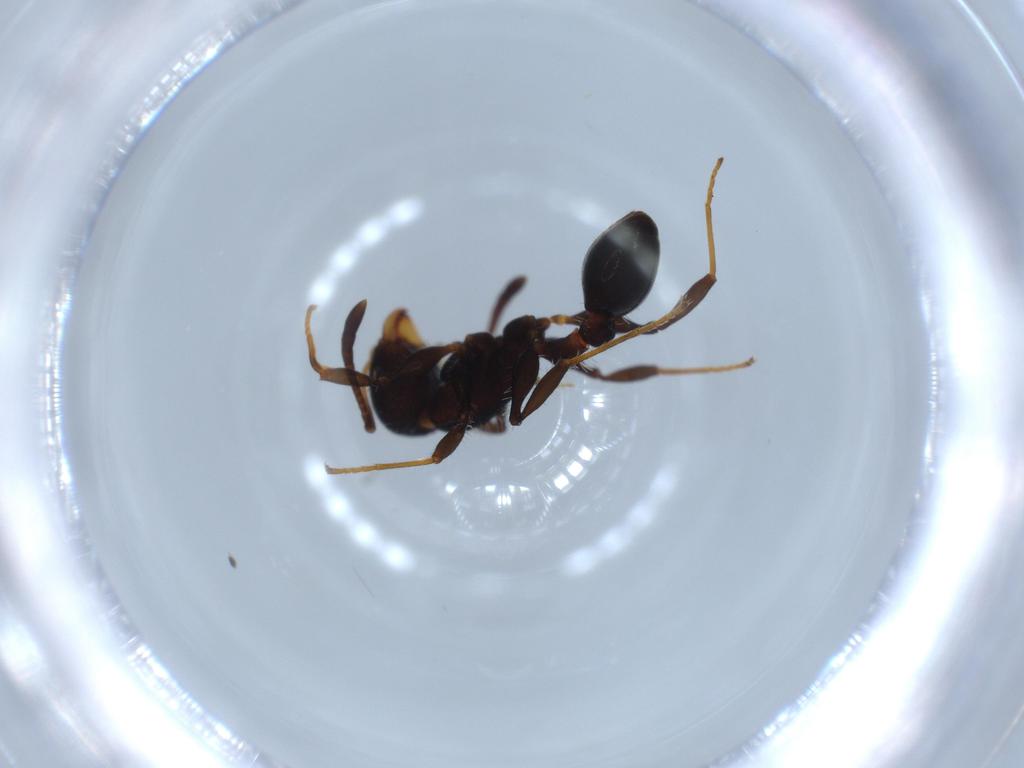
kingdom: Animalia
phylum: Arthropoda
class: Insecta
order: Hymenoptera
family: Formicidae
